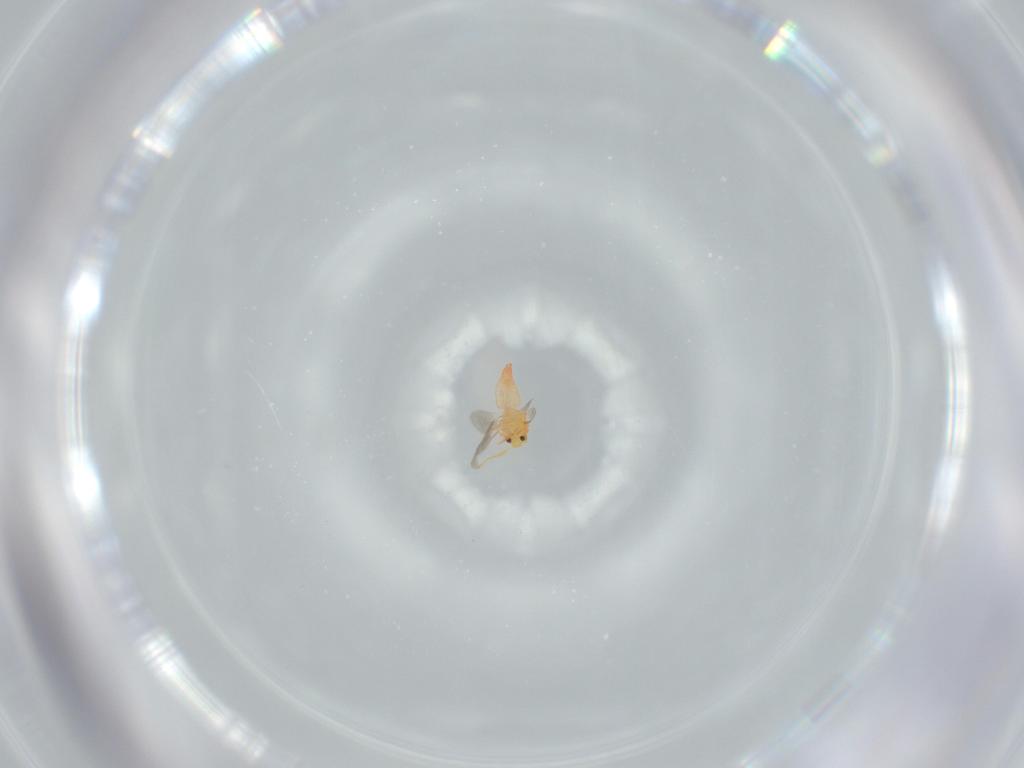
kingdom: Animalia
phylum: Arthropoda
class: Insecta
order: Hemiptera
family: Aleyrodidae
